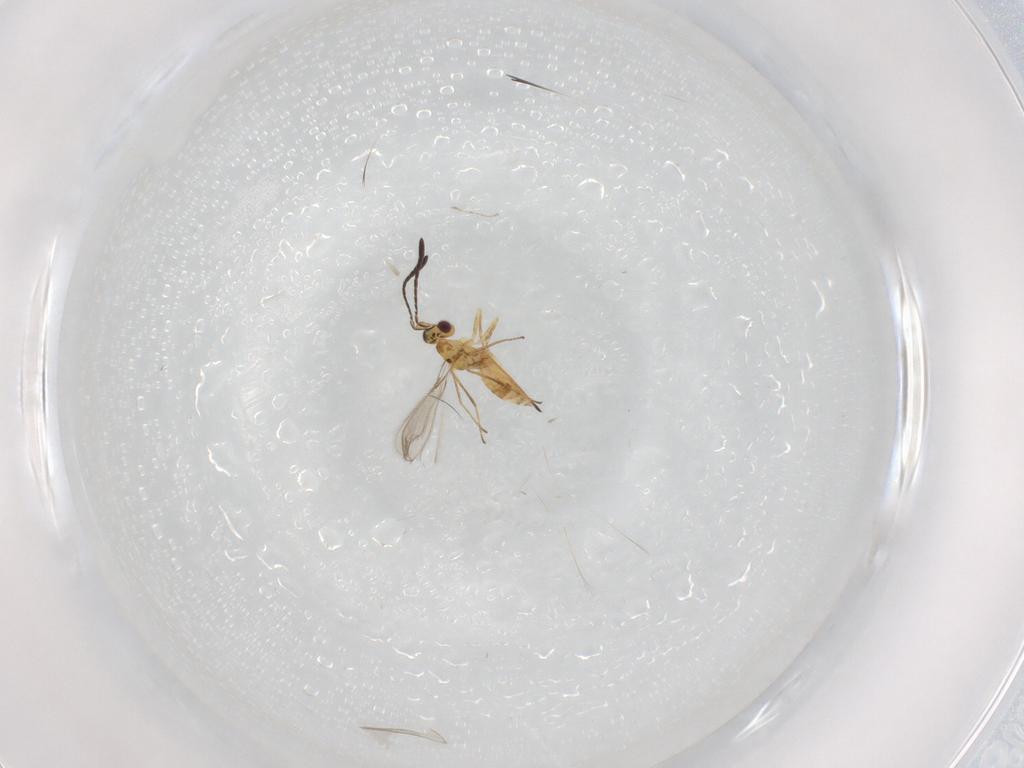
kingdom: Animalia
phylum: Arthropoda
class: Insecta
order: Hymenoptera
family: Mymaridae
